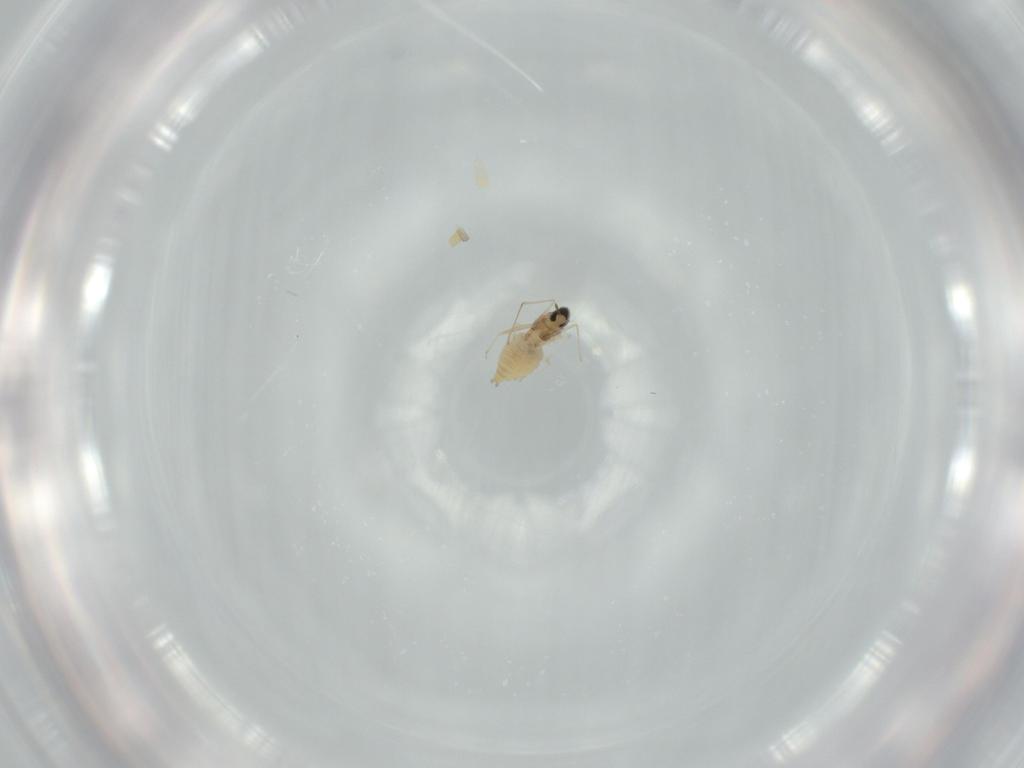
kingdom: Animalia
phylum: Arthropoda
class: Insecta
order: Diptera
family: Cecidomyiidae
